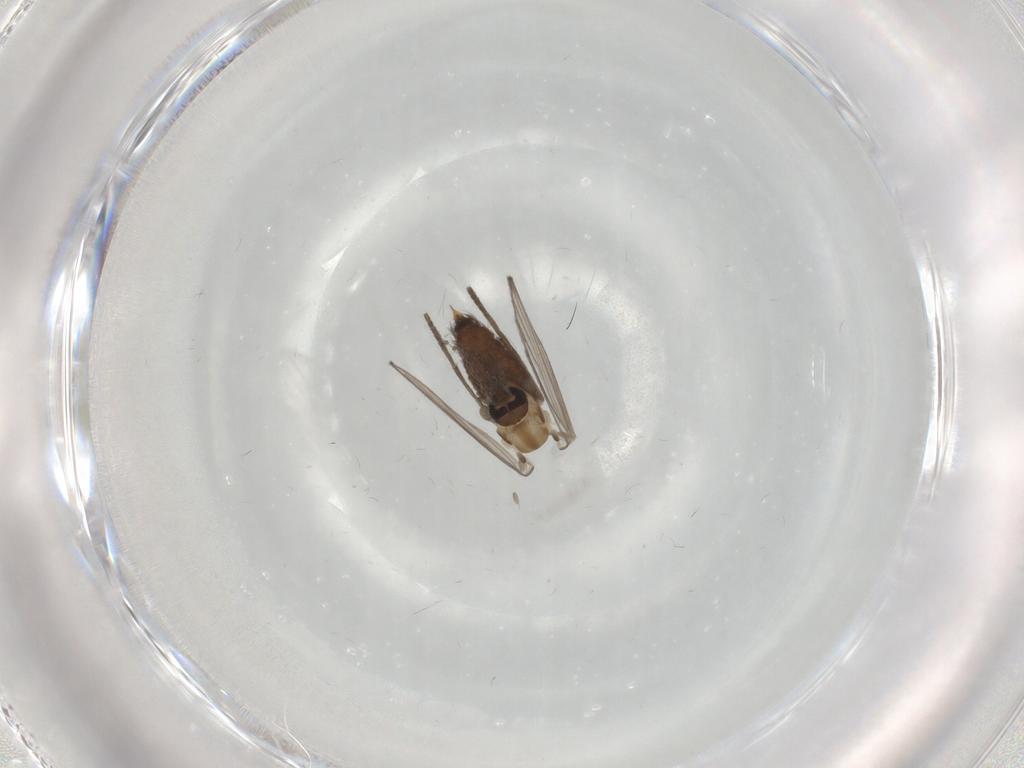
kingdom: Animalia
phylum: Arthropoda
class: Insecta
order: Diptera
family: Psychodidae
